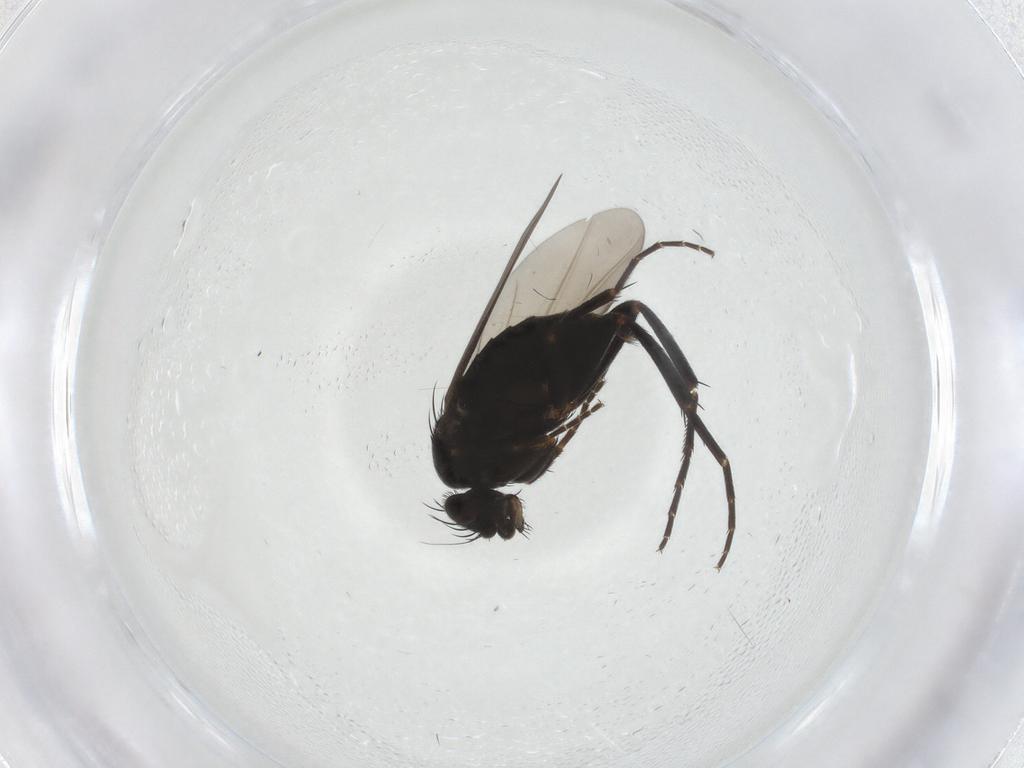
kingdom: Animalia
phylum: Arthropoda
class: Insecta
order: Diptera
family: Phoridae
